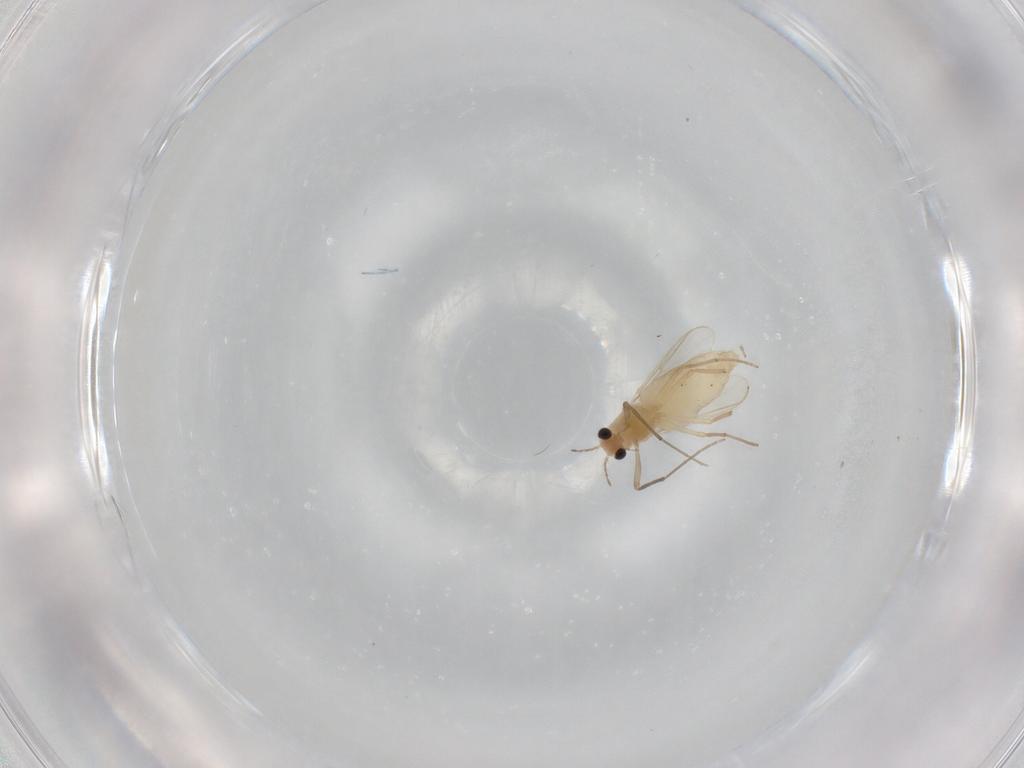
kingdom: Animalia
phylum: Arthropoda
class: Insecta
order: Diptera
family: Chironomidae
